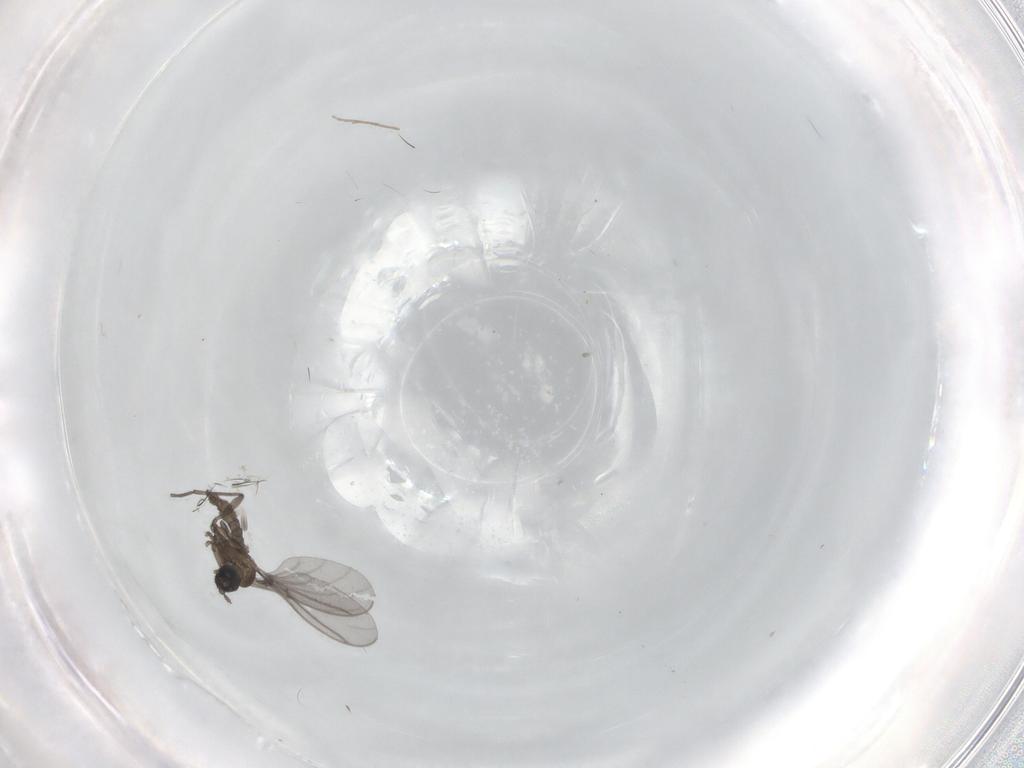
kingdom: Animalia
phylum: Arthropoda
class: Insecta
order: Diptera
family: Sciaridae
